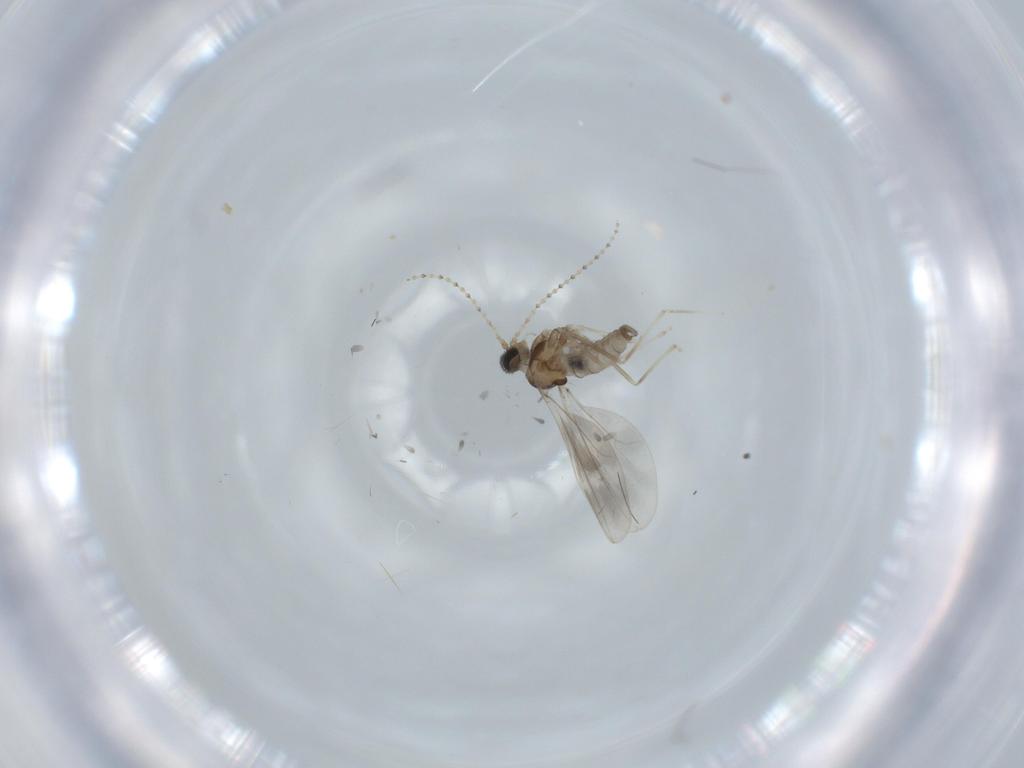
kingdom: Animalia
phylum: Arthropoda
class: Insecta
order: Diptera
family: Cecidomyiidae
